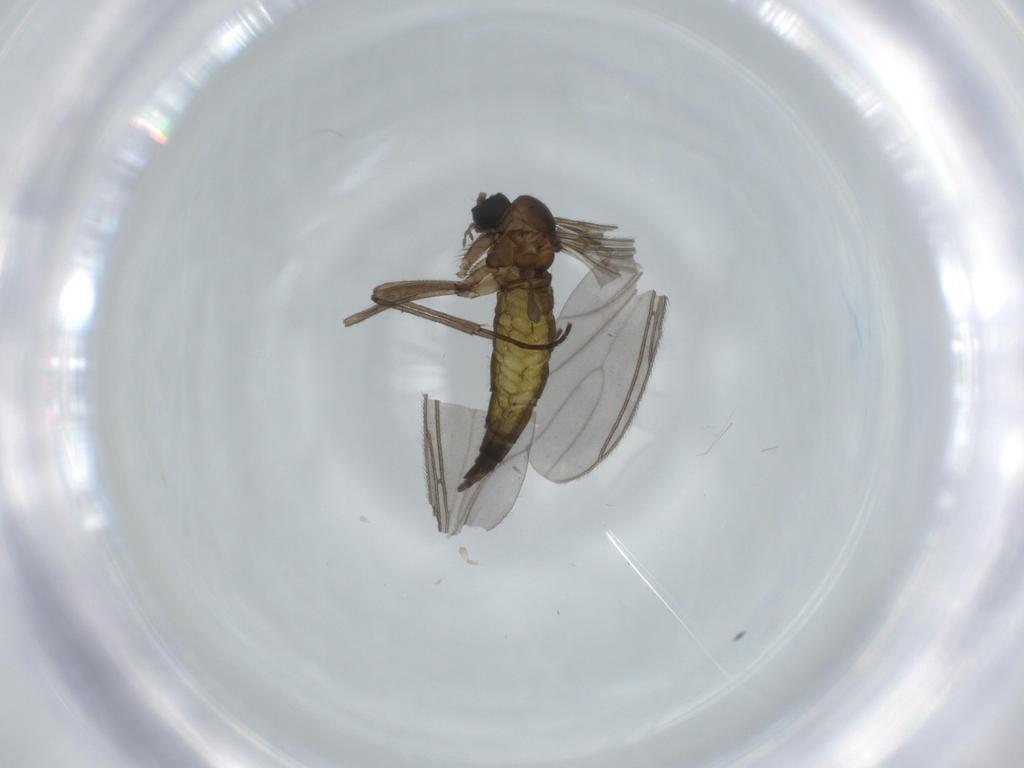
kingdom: Animalia
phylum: Arthropoda
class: Insecta
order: Diptera
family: Sciaridae
